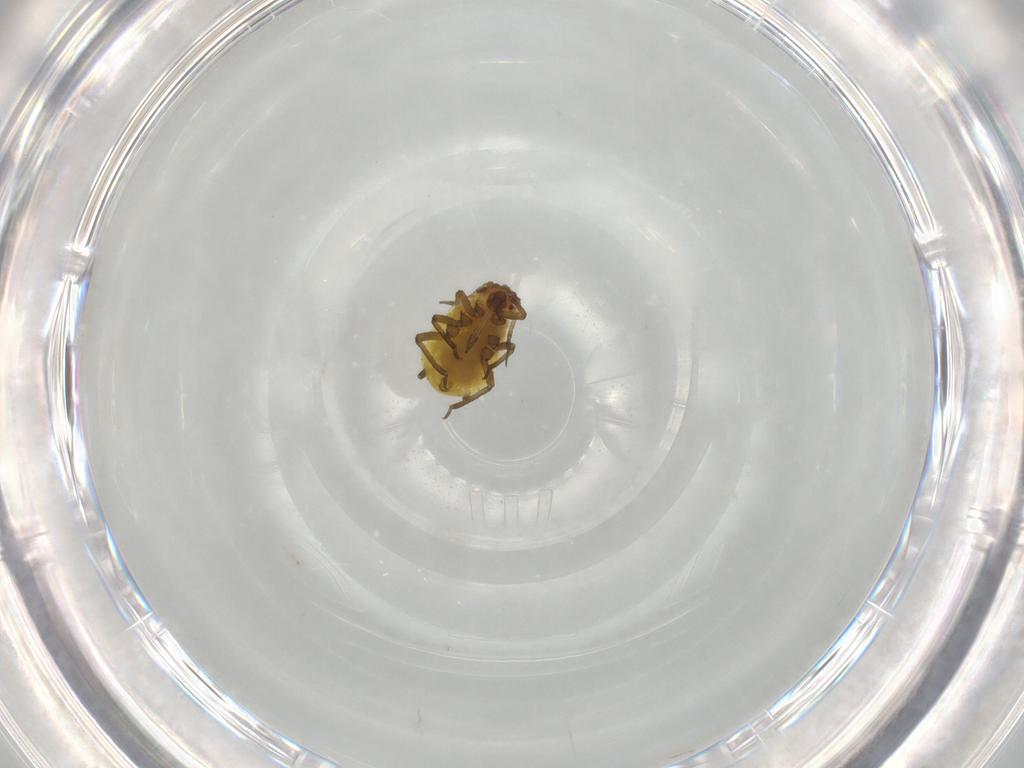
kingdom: Animalia
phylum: Arthropoda
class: Insecta
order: Hemiptera
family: Aphididae
